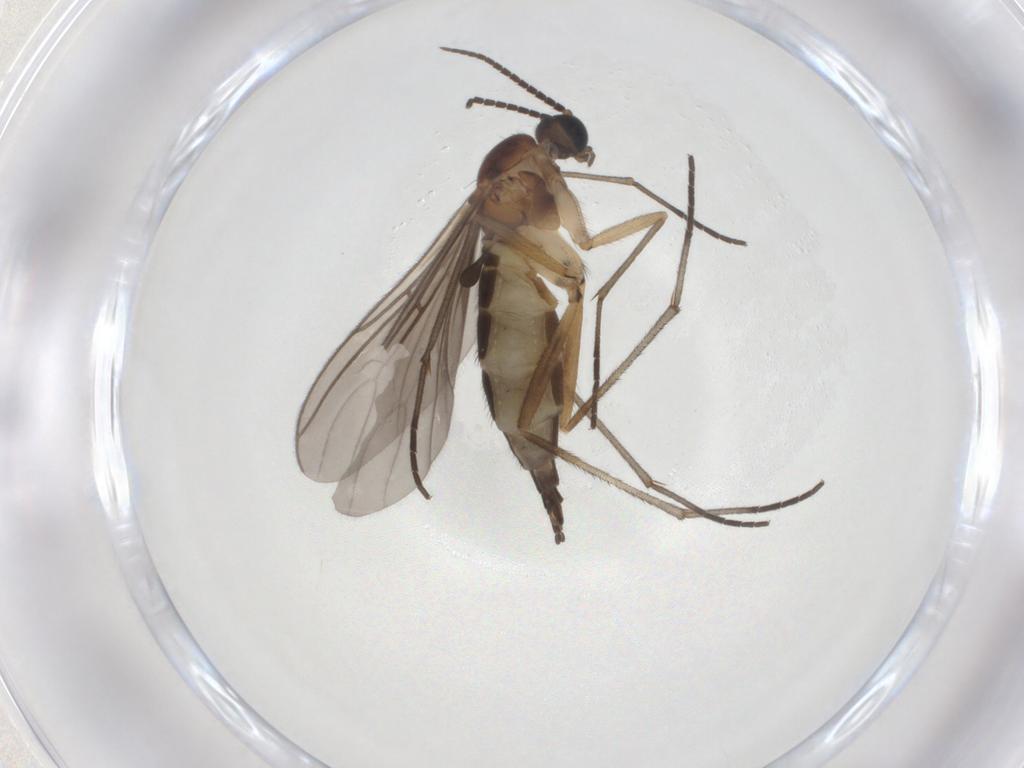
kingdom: Animalia
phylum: Arthropoda
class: Insecta
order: Diptera
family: Sciaridae
